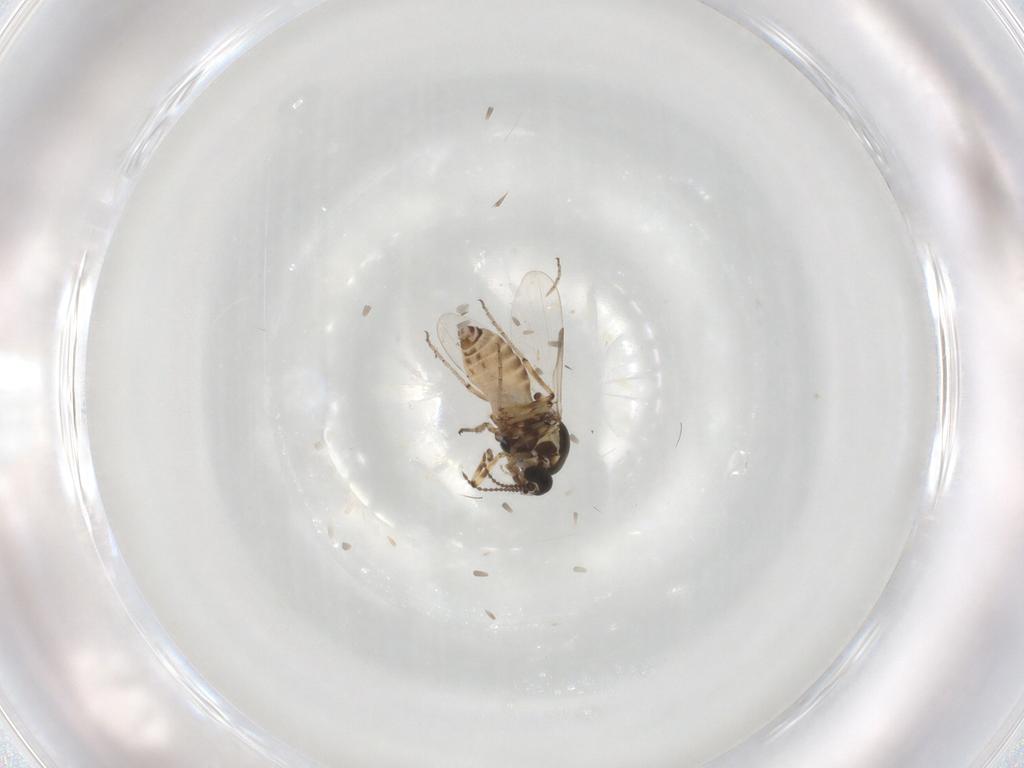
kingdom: Animalia
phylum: Arthropoda
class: Insecta
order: Diptera
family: Ceratopogonidae
